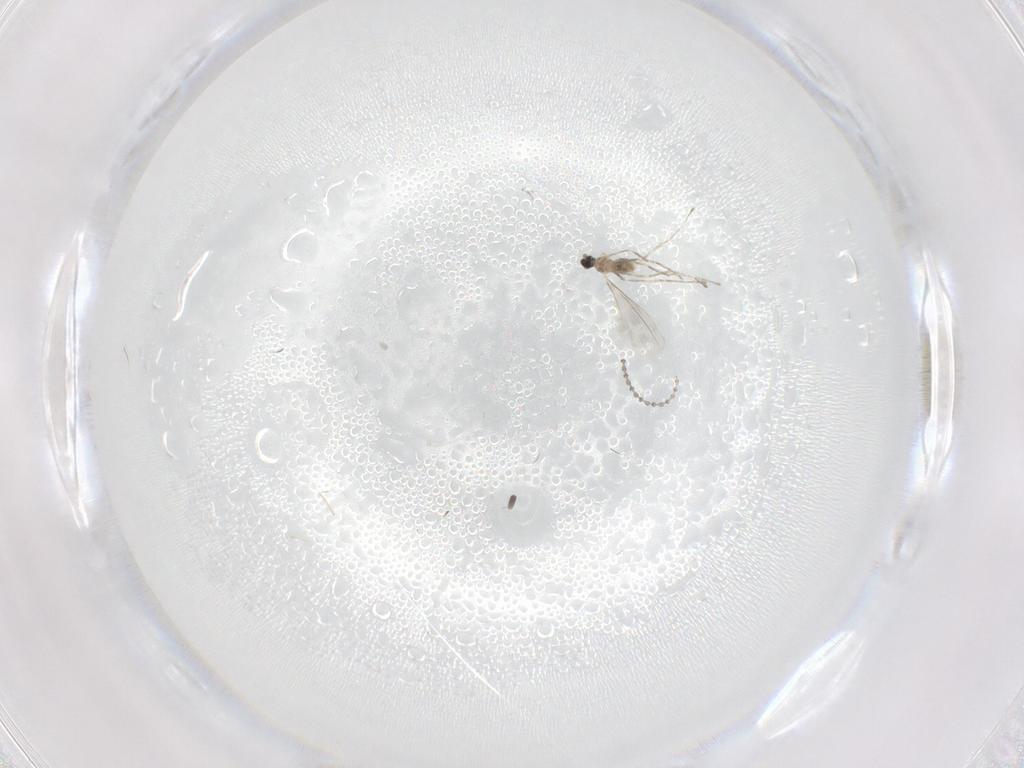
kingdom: Animalia
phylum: Arthropoda
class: Insecta
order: Diptera
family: Cecidomyiidae
